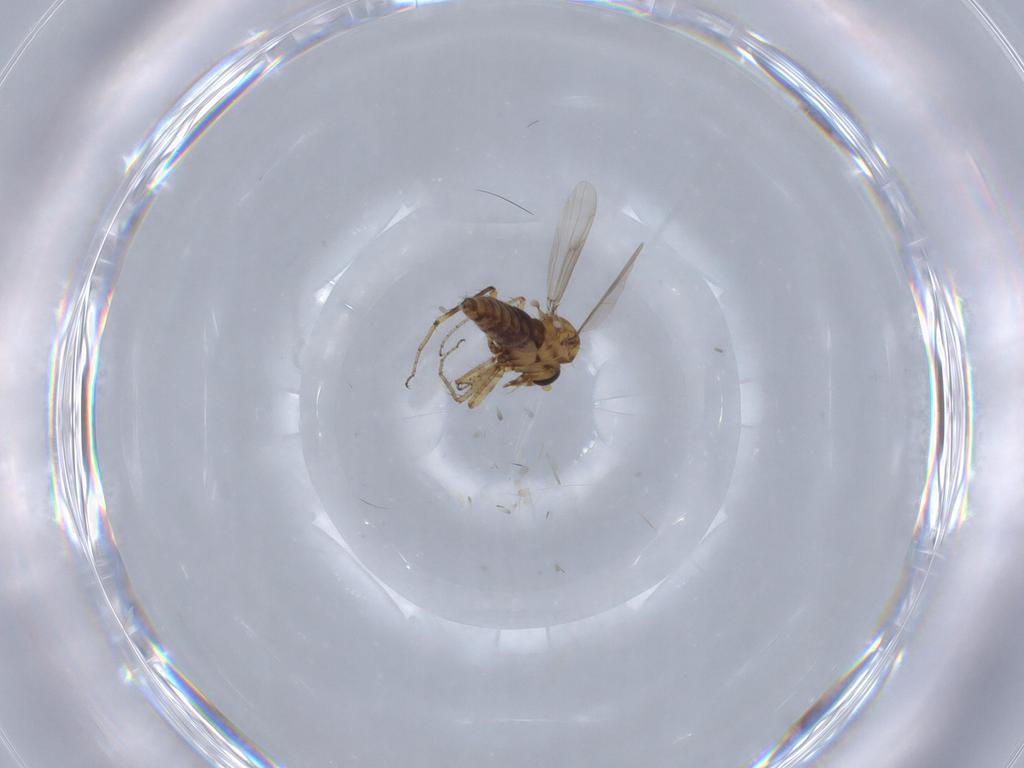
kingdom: Animalia
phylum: Arthropoda
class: Insecta
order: Diptera
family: Ceratopogonidae
